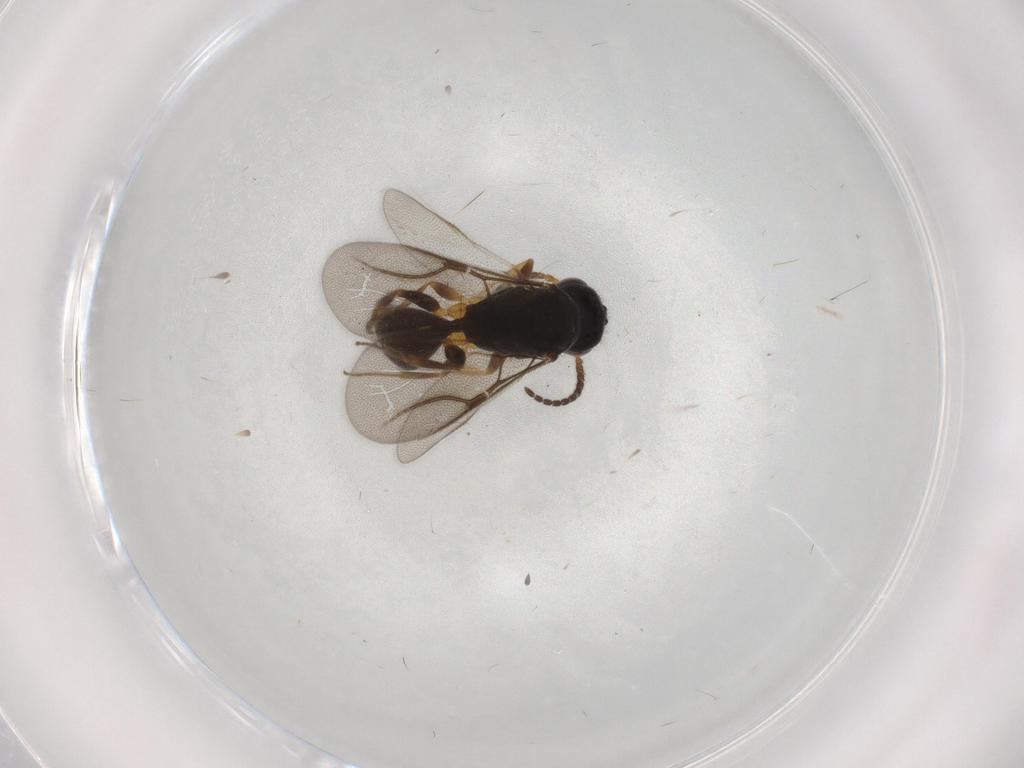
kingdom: Animalia
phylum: Arthropoda
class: Insecta
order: Hymenoptera
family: Bethylidae
